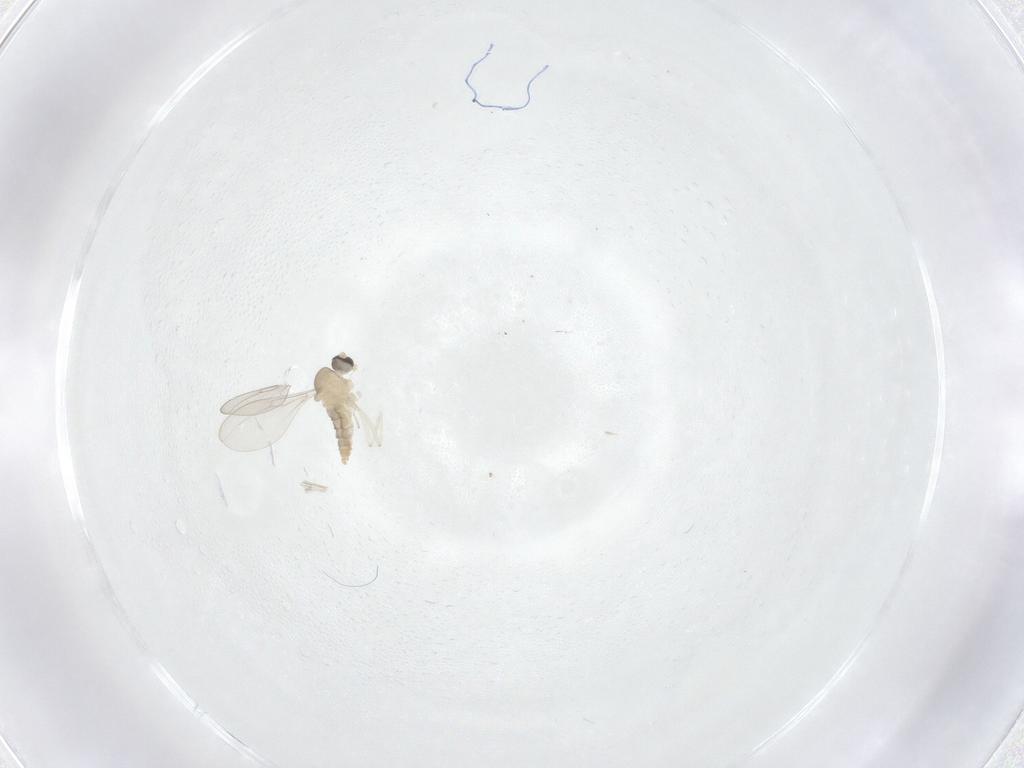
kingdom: Animalia
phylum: Arthropoda
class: Insecta
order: Diptera
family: Cecidomyiidae
